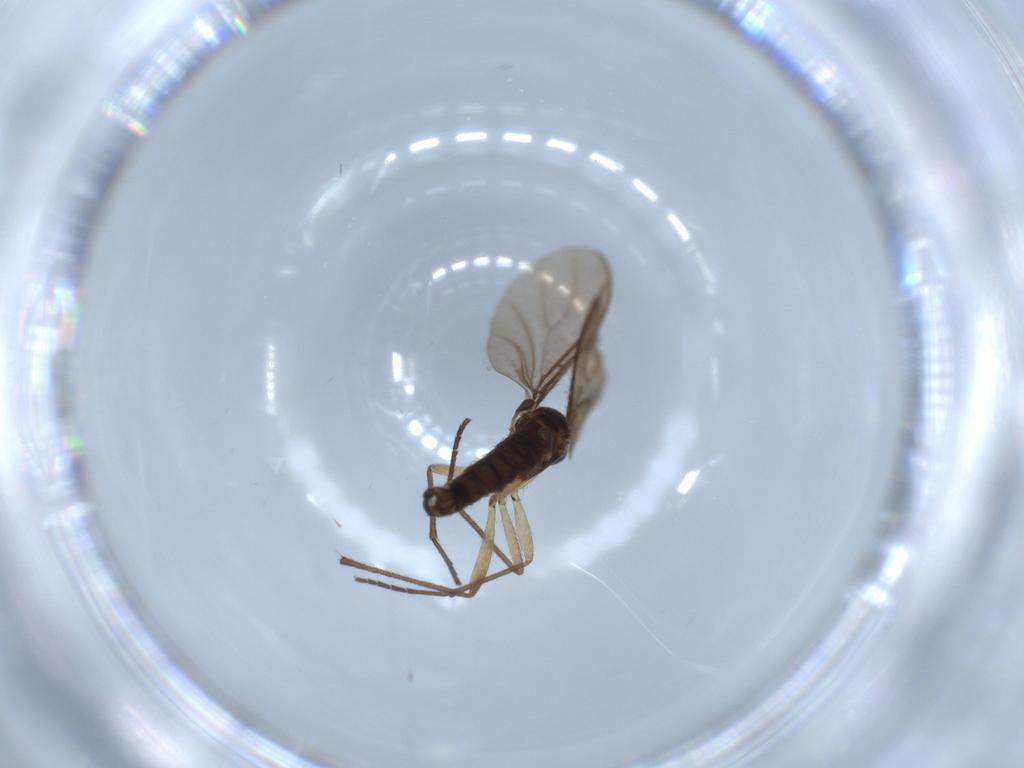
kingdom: Animalia
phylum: Arthropoda
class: Insecta
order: Diptera
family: Sciaridae
